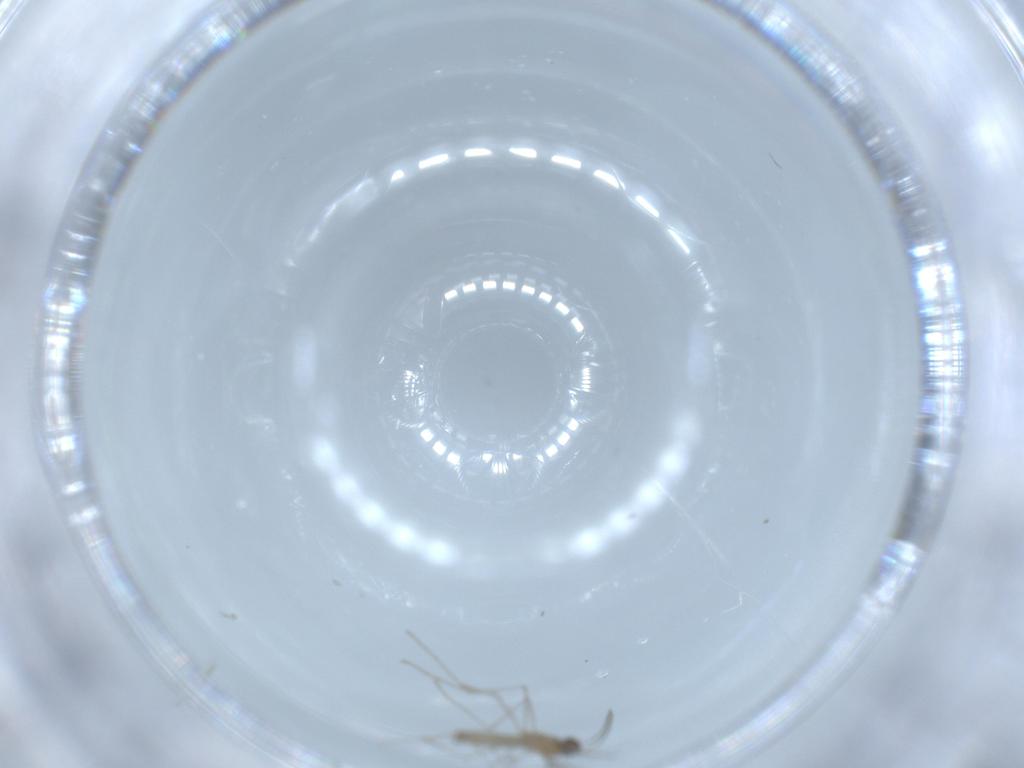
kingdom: Animalia
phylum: Arthropoda
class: Insecta
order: Diptera
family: Cecidomyiidae
